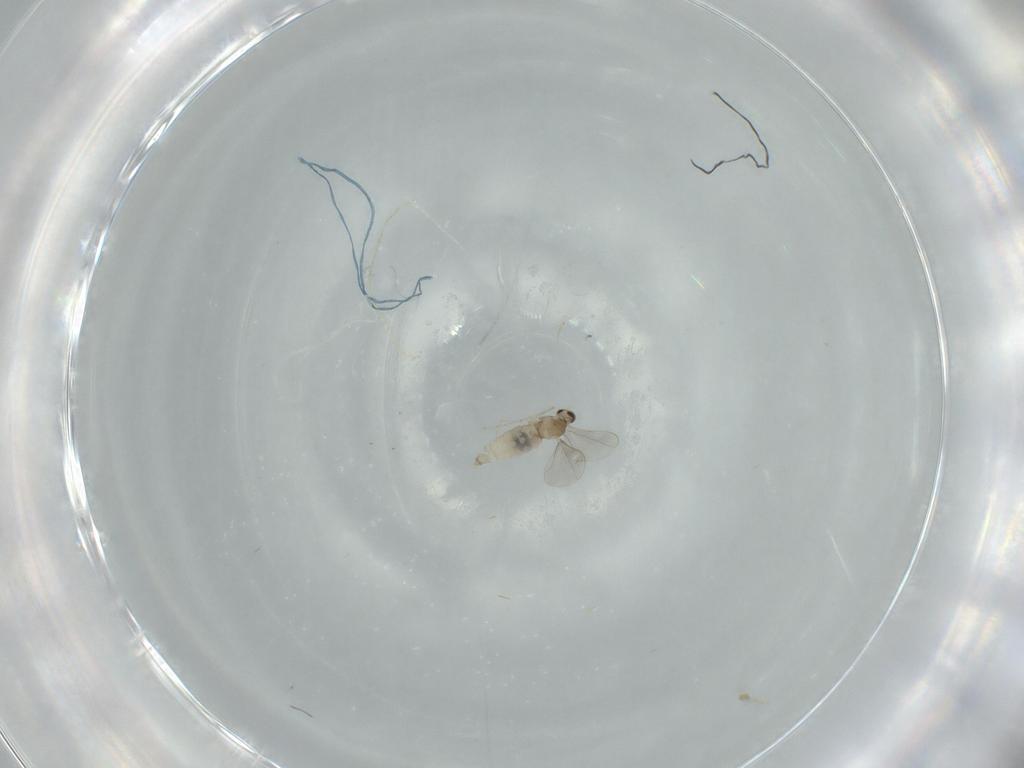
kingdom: Animalia
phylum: Arthropoda
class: Insecta
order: Diptera
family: Cecidomyiidae
